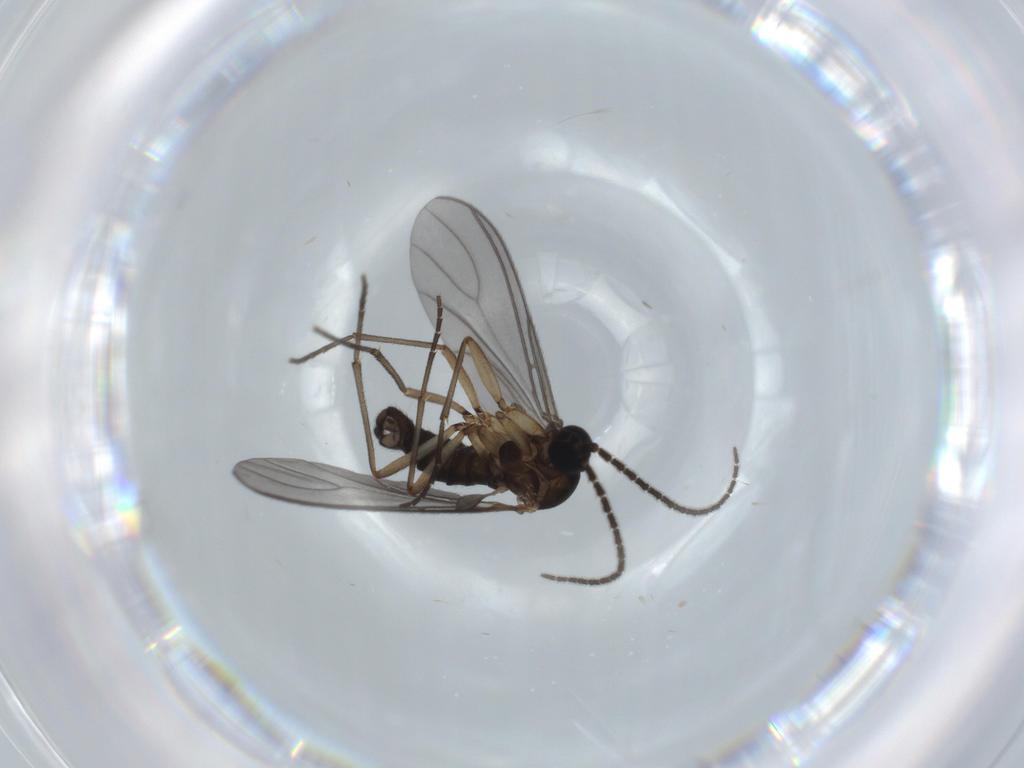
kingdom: Animalia
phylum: Arthropoda
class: Insecta
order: Diptera
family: Sciaridae
